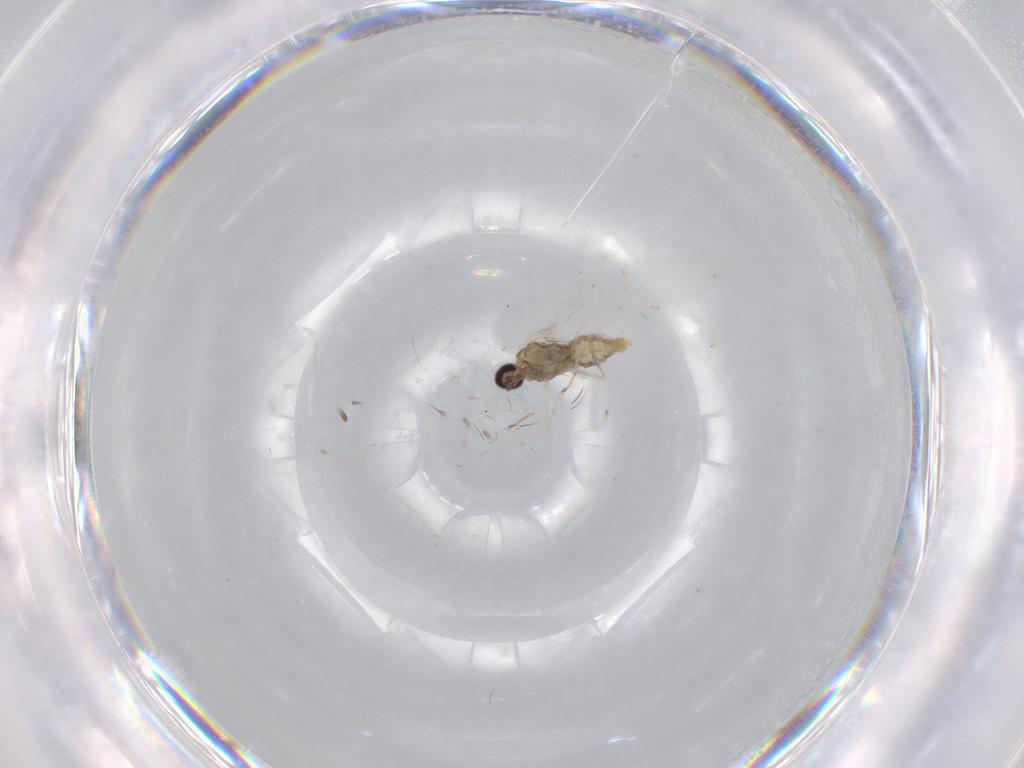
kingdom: Animalia
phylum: Arthropoda
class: Insecta
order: Diptera
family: Cecidomyiidae
